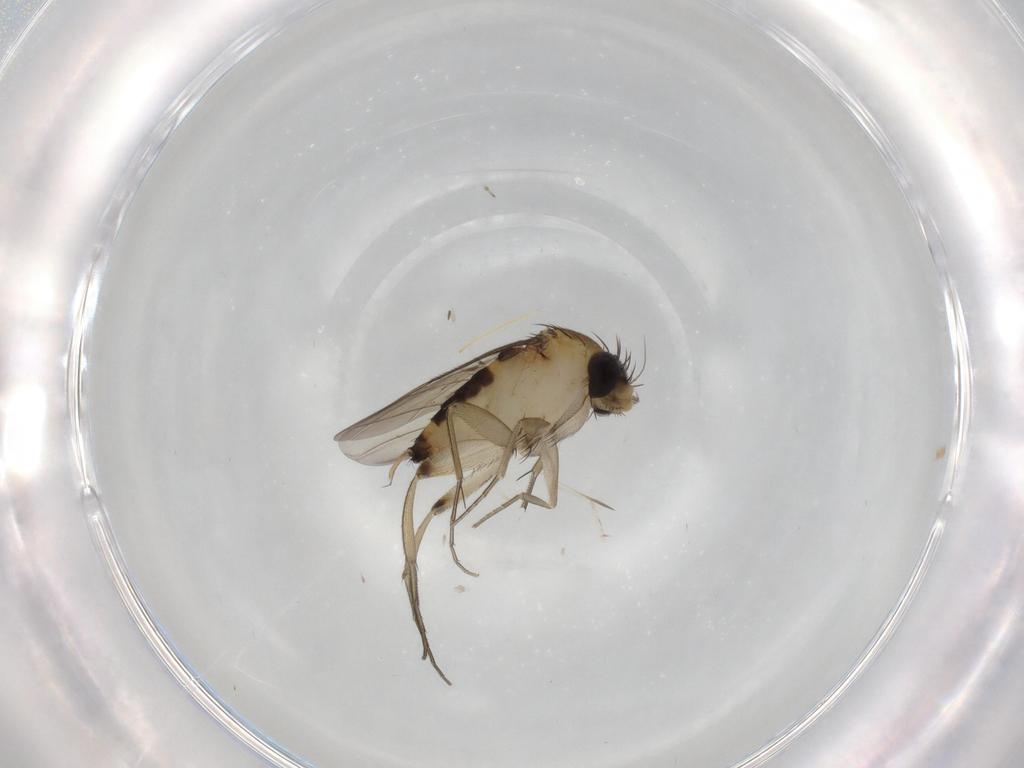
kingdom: Animalia
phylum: Arthropoda
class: Insecta
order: Diptera
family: Phoridae
